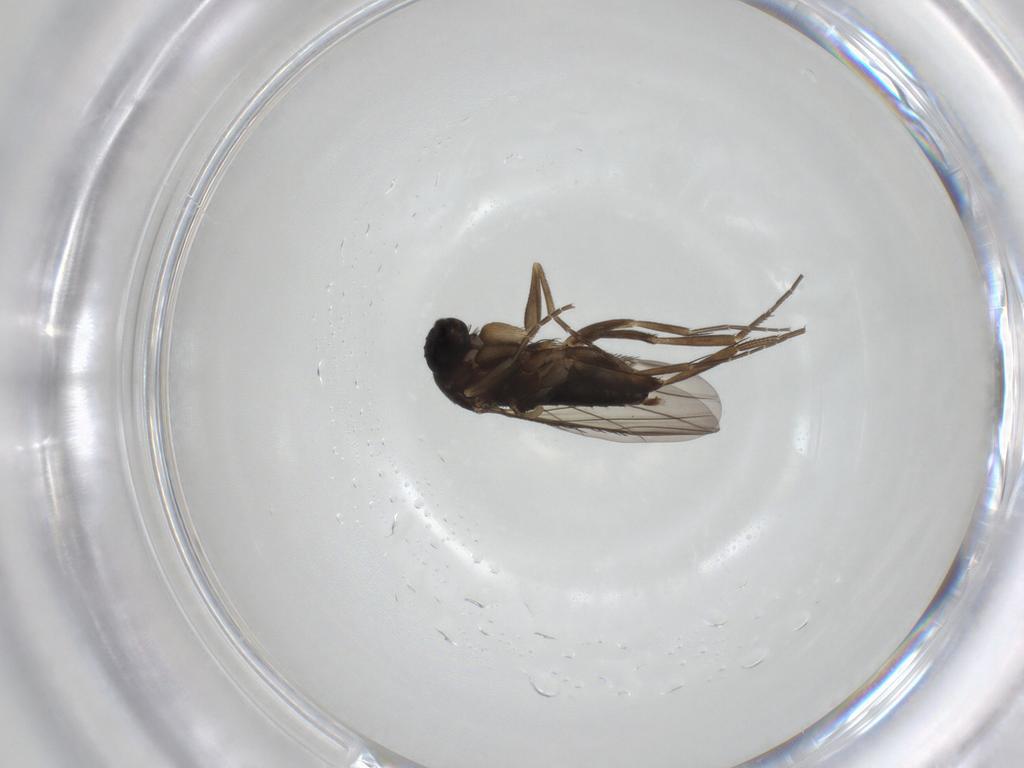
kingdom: Animalia
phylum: Arthropoda
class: Insecta
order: Diptera
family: Phoridae
